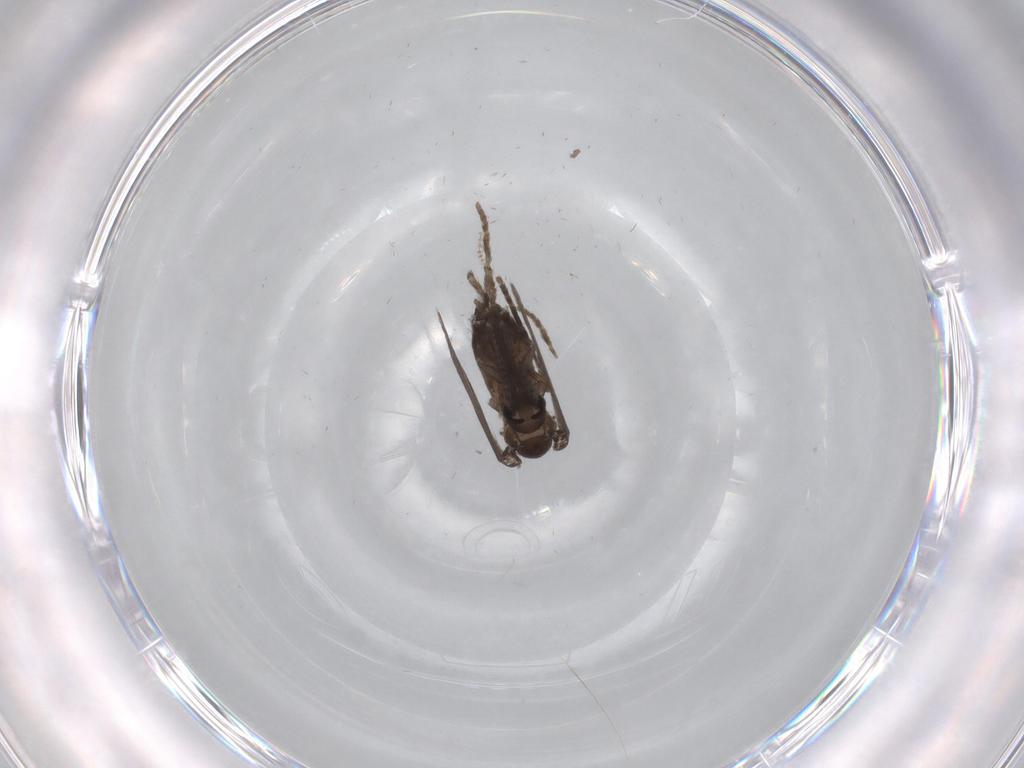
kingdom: Animalia
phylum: Arthropoda
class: Insecta
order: Diptera
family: Psychodidae
